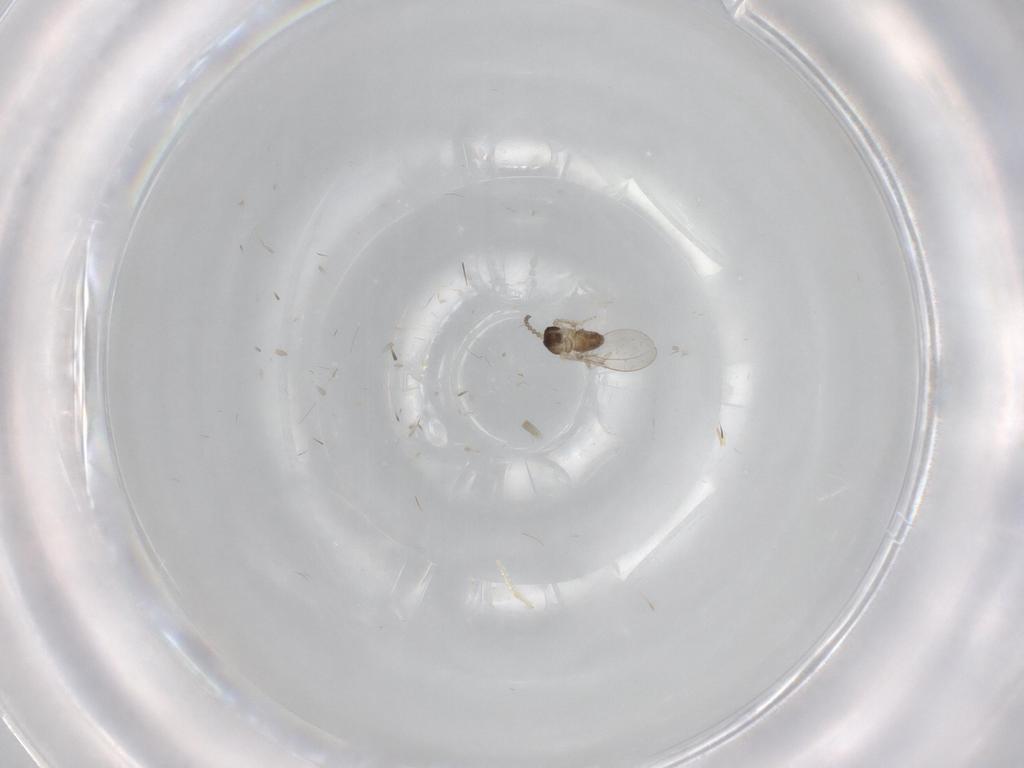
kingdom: Animalia
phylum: Arthropoda
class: Insecta
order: Diptera
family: Cecidomyiidae
